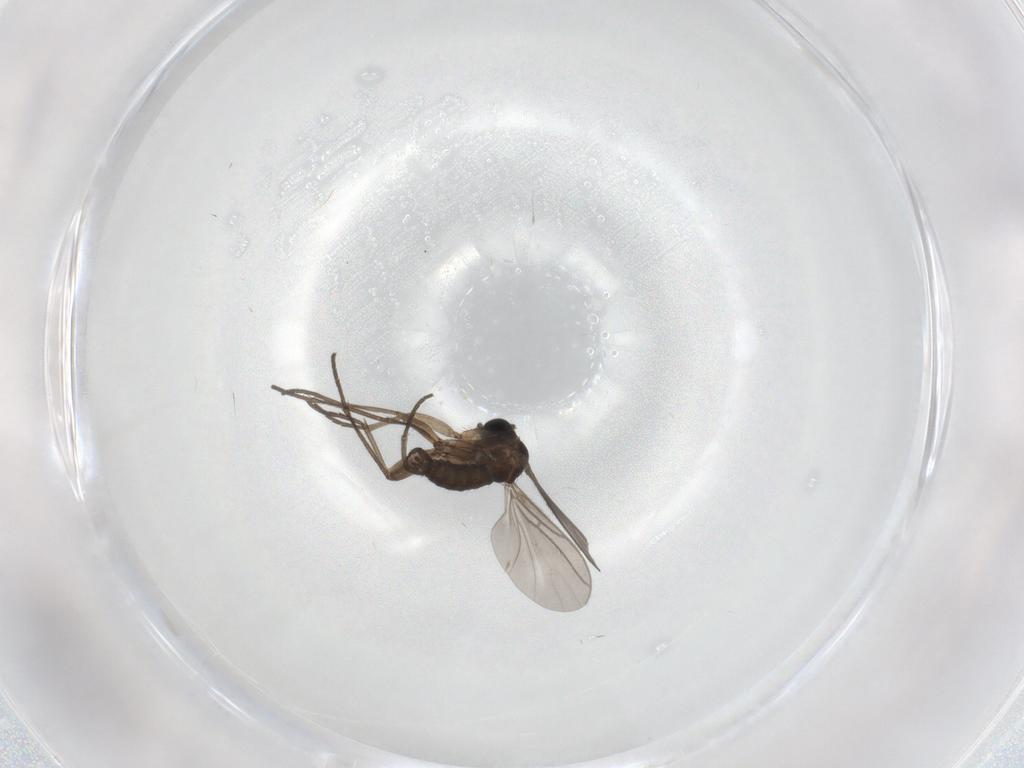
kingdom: Animalia
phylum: Arthropoda
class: Insecta
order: Diptera
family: Sciaridae
